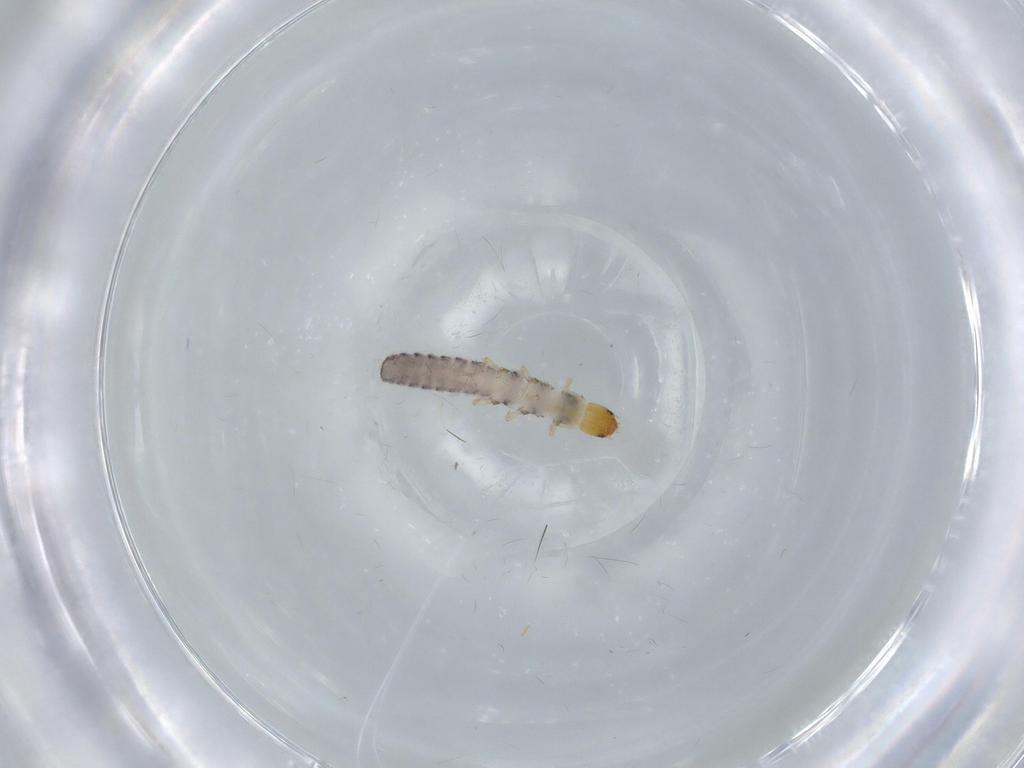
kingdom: Animalia
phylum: Arthropoda
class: Insecta
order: Coleoptera
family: Cleridae
